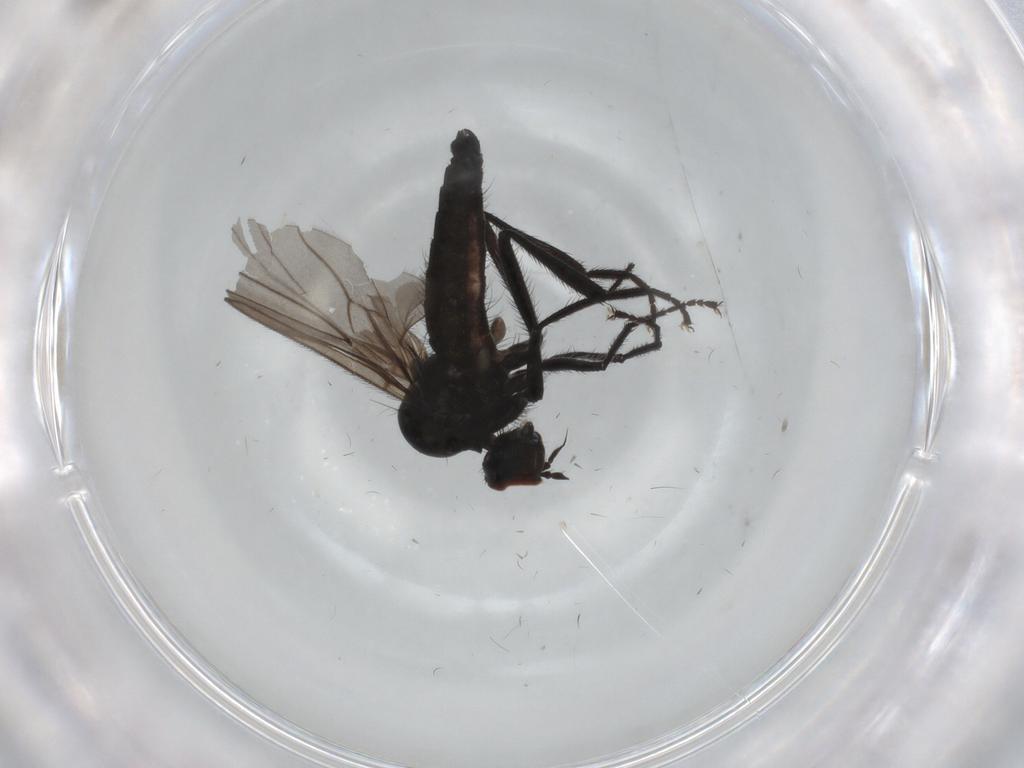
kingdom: Animalia
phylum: Arthropoda
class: Insecta
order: Diptera
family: Hybotidae
